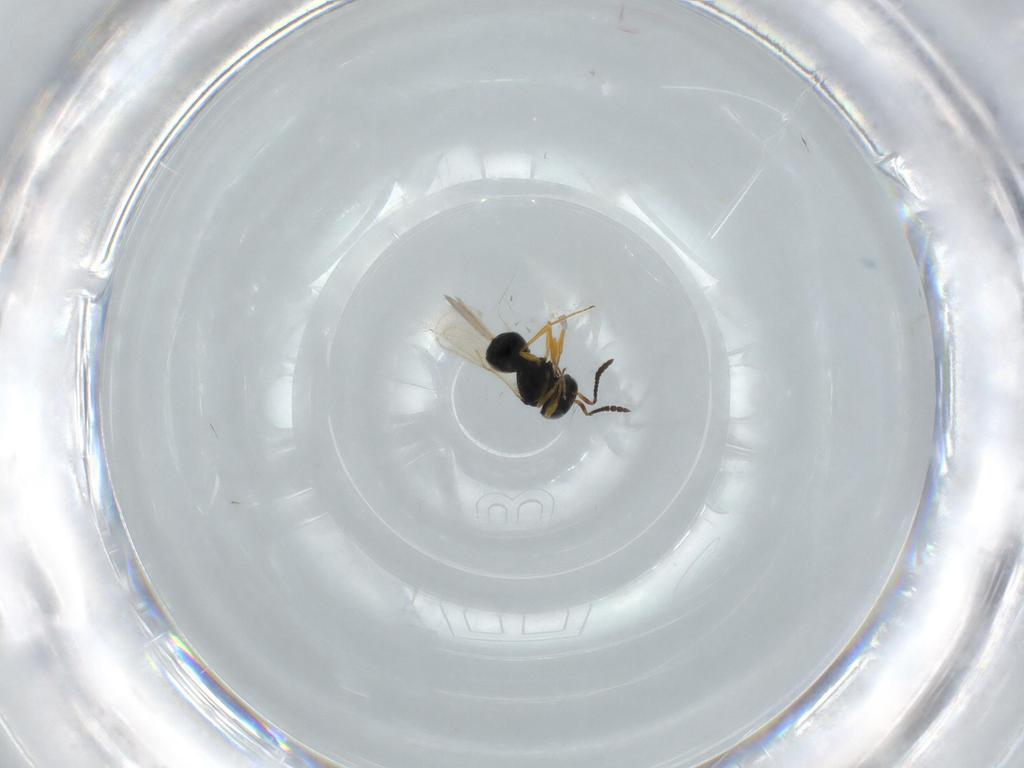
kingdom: Animalia
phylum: Arthropoda
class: Insecta
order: Hymenoptera
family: Scelionidae
